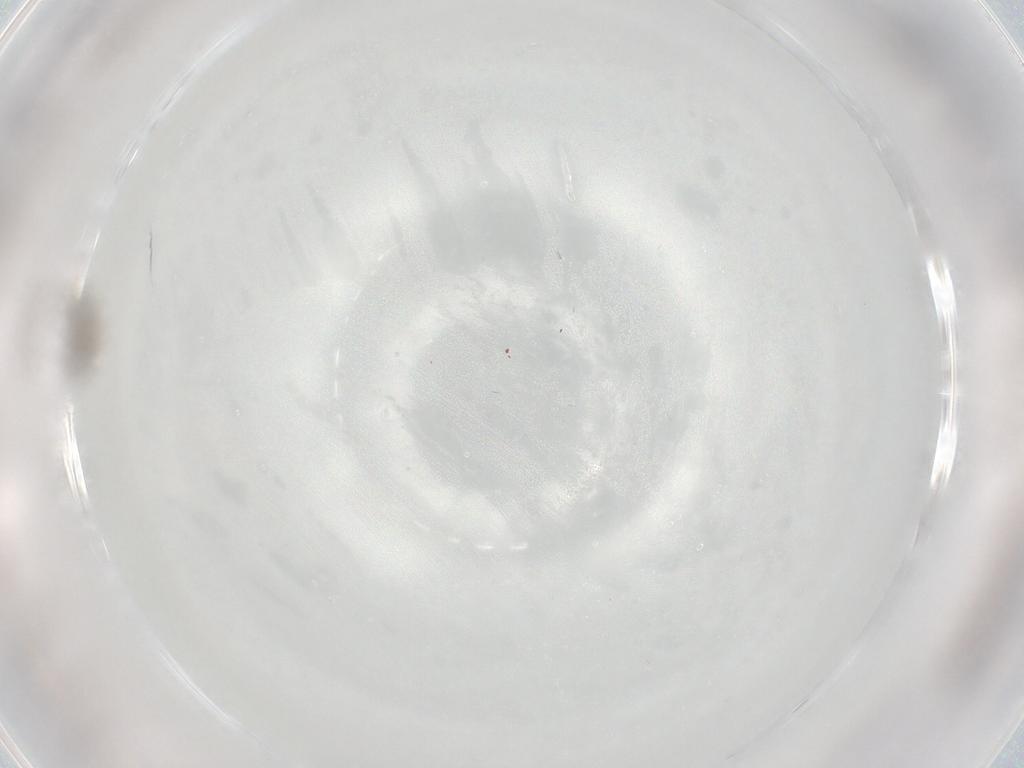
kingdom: Animalia
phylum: Arthropoda
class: Insecta
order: Diptera
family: Cecidomyiidae
